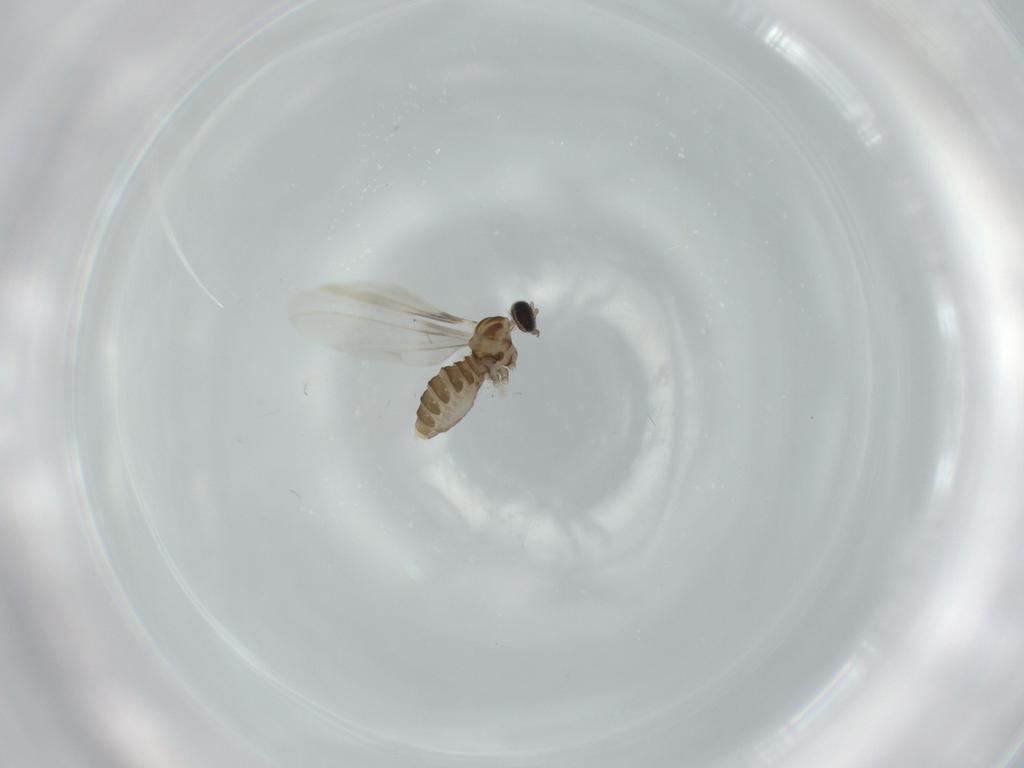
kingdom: Animalia
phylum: Arthropoda
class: Insecta
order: Diptera
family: Cecidomyiidae
